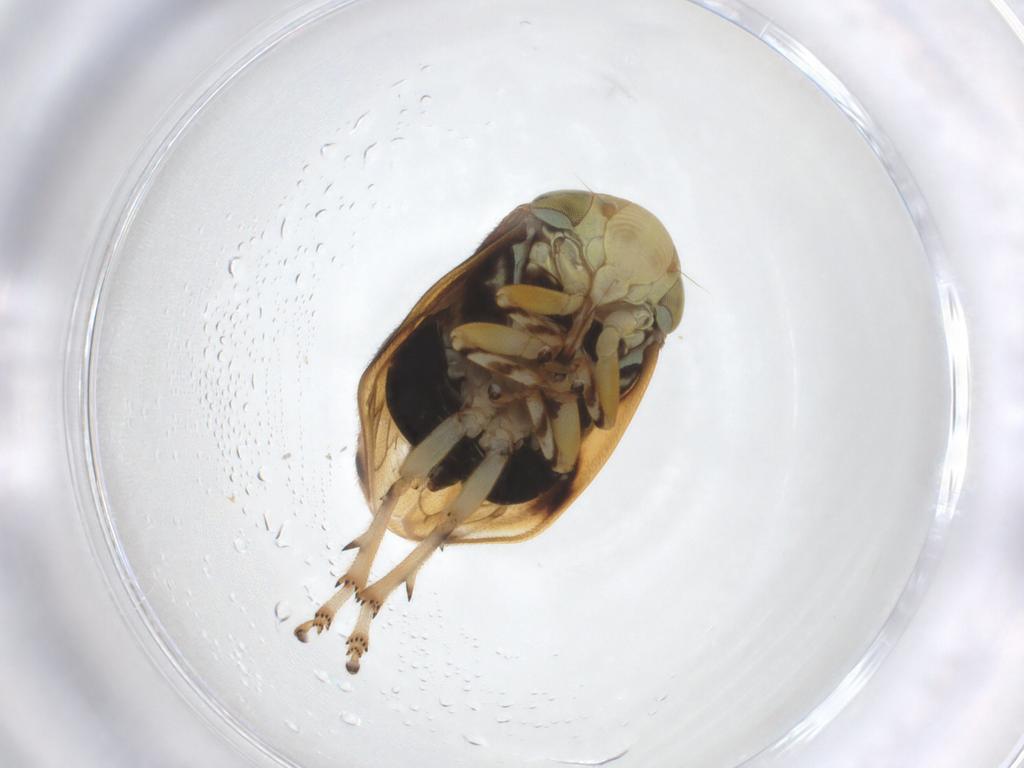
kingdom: Animalia
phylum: Arthropoda
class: Insecta
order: Hemiptera
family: Clastopteridae
